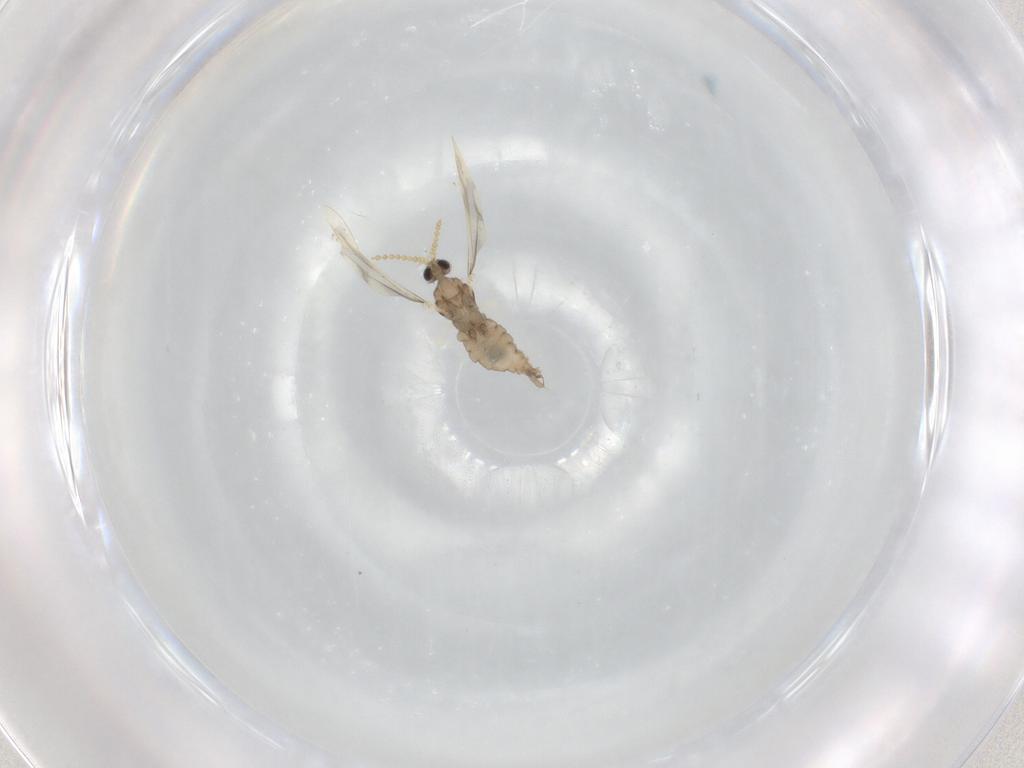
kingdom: Animalia
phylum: Arthropoda
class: Insecta
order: Diptera
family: Cecidomyiidae
